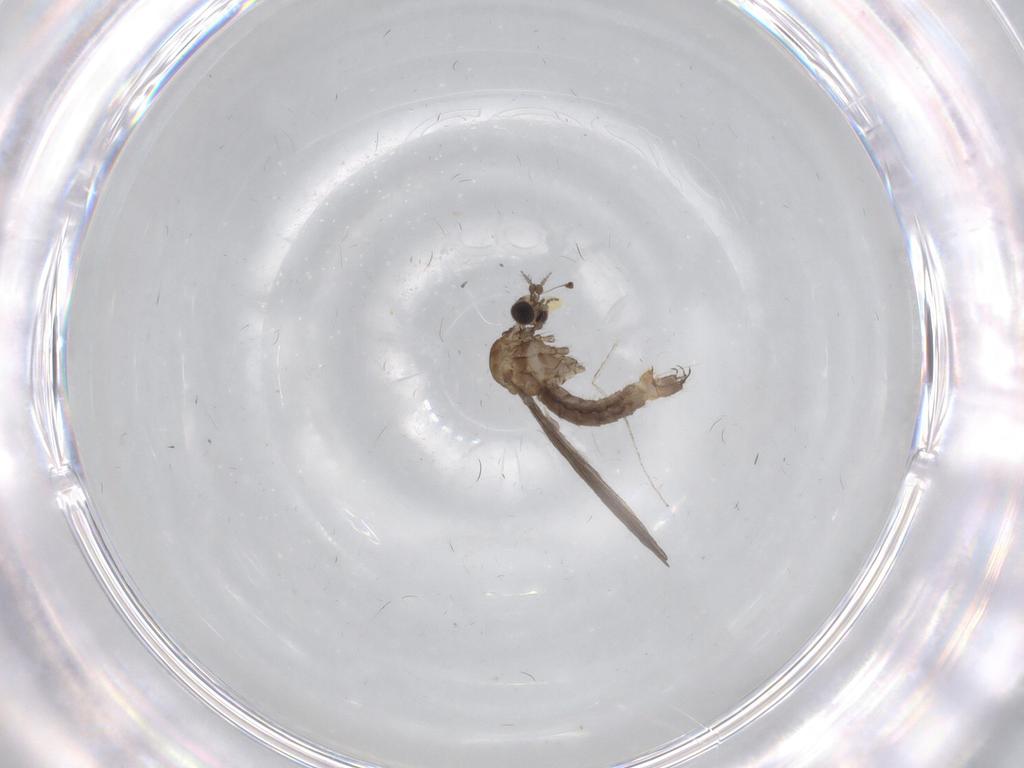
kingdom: Animalia
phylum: Arthropoda
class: Insecta
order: Diptera
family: Limoniidae
